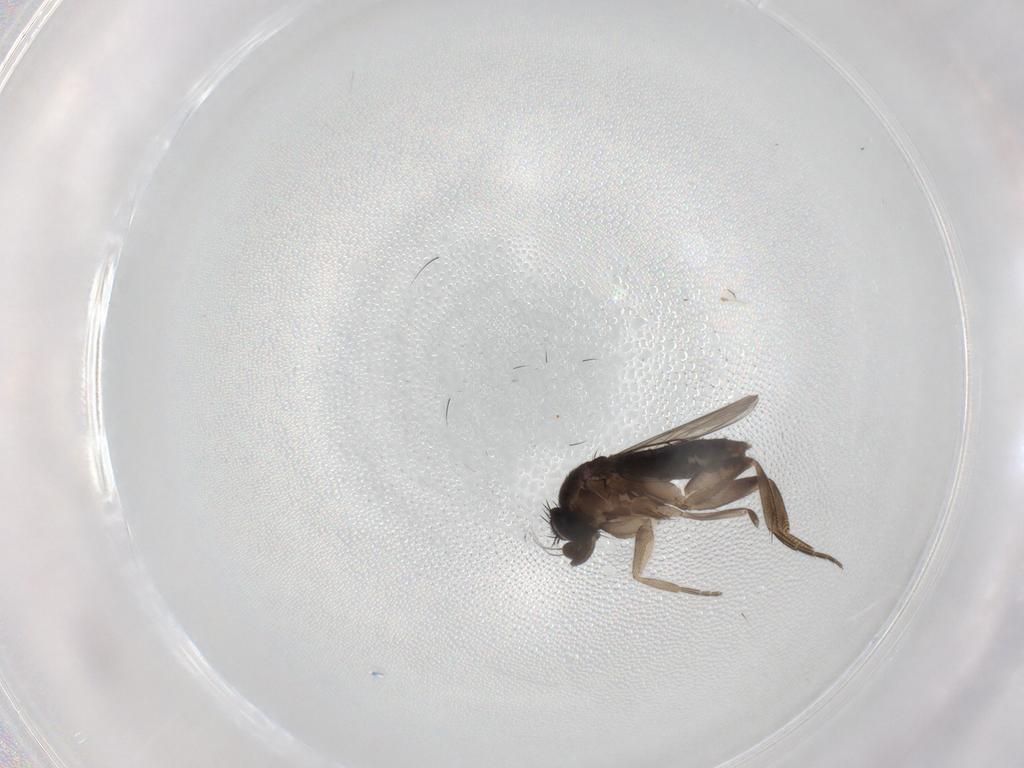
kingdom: Animalia
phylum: Arthropoda
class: Insecta
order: Diptera
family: Phoridae
